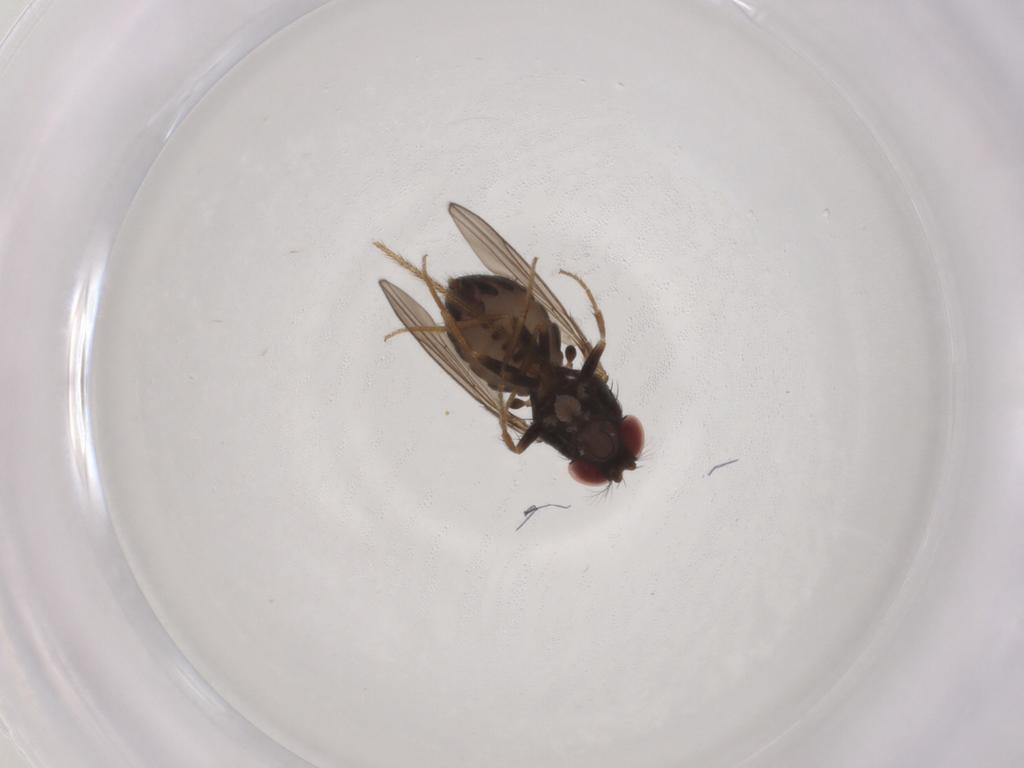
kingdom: Animalia
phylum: Arthropoda
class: Insecta
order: Diptera
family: Drosophilidae
